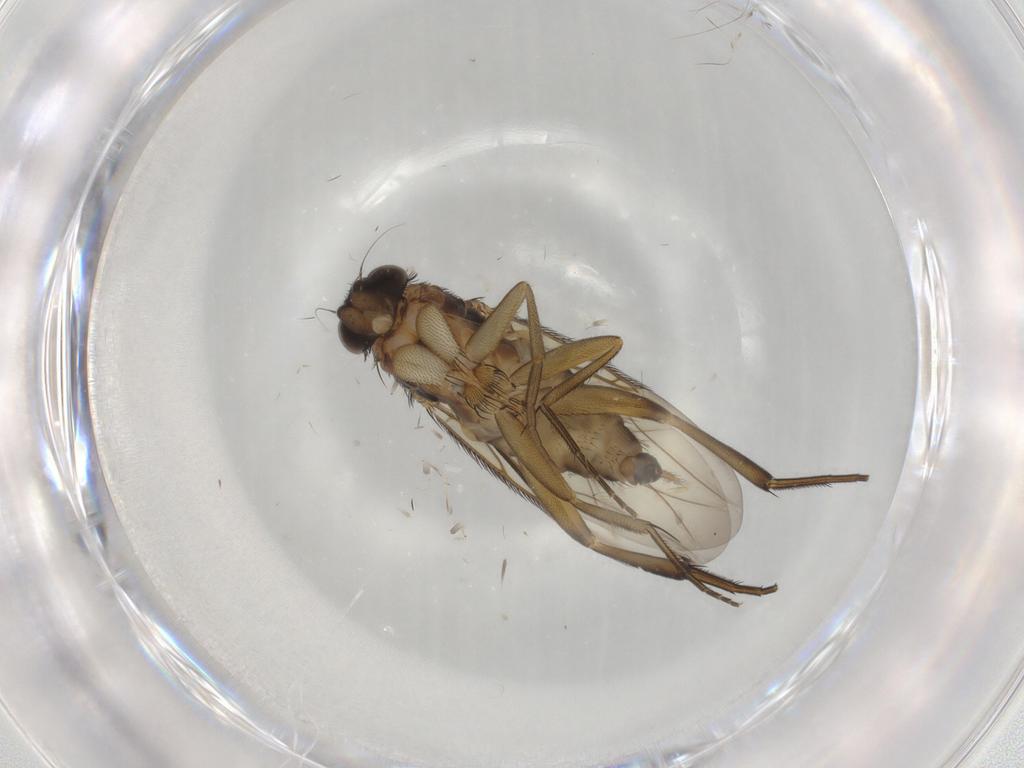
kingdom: Animalia
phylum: Arthropoda
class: Insecta
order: Diptera
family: Phoridae
